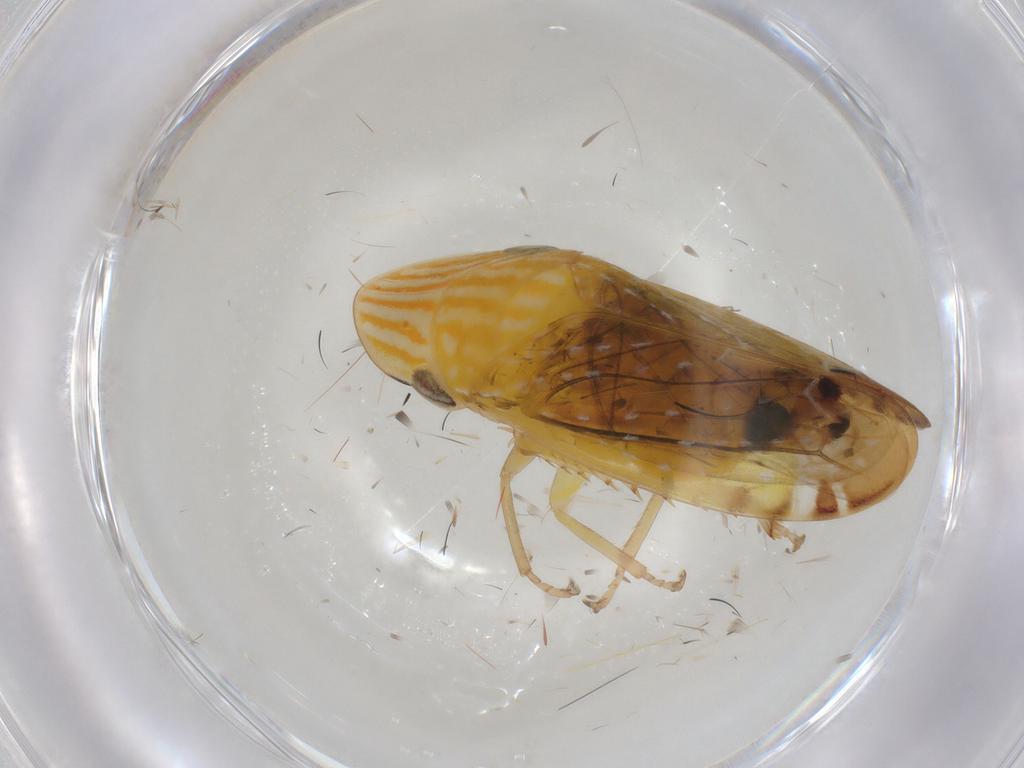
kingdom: Animalia
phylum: Arthropoda
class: Insecta
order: Hemiptera
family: Cicadellidae
